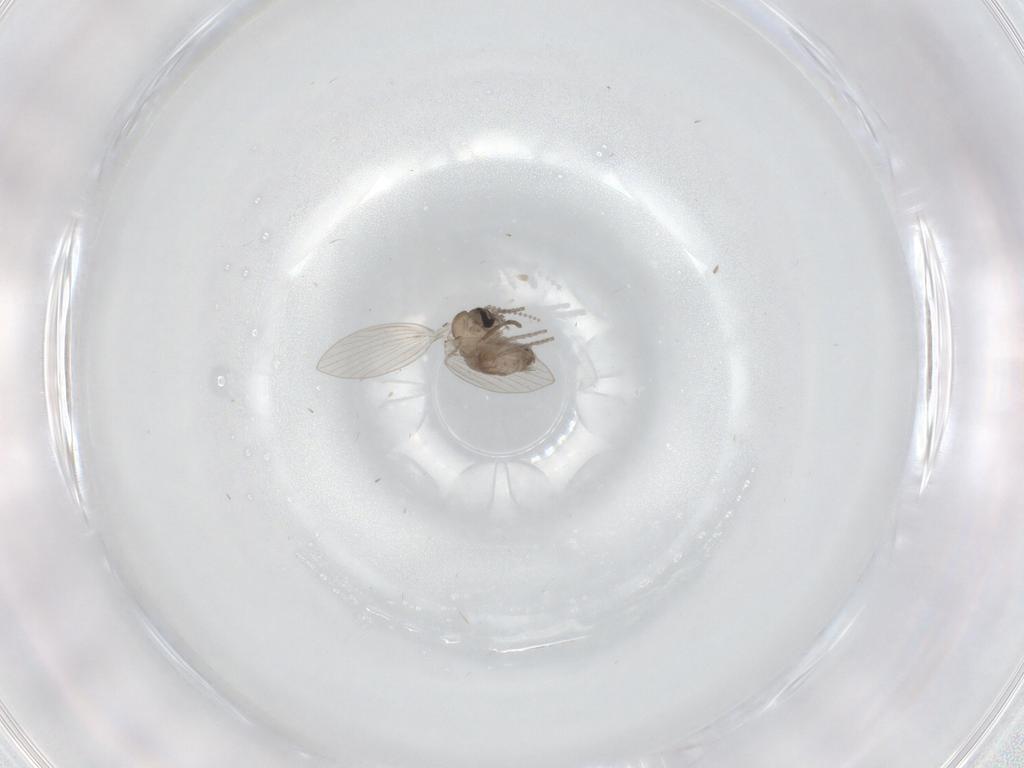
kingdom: Animalia
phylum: Arthropoda
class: Insecta
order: Diptera
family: Psychodidae
